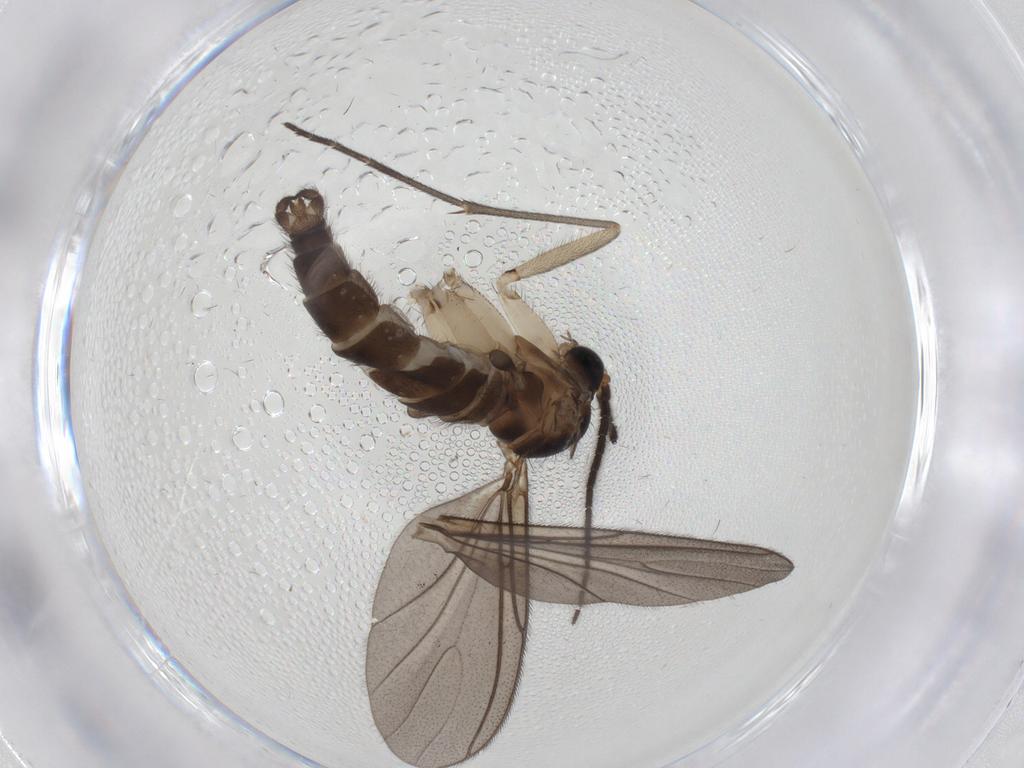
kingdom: Animalia
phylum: Arthropoda
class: Insecta
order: Diptera
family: Sciaridae
